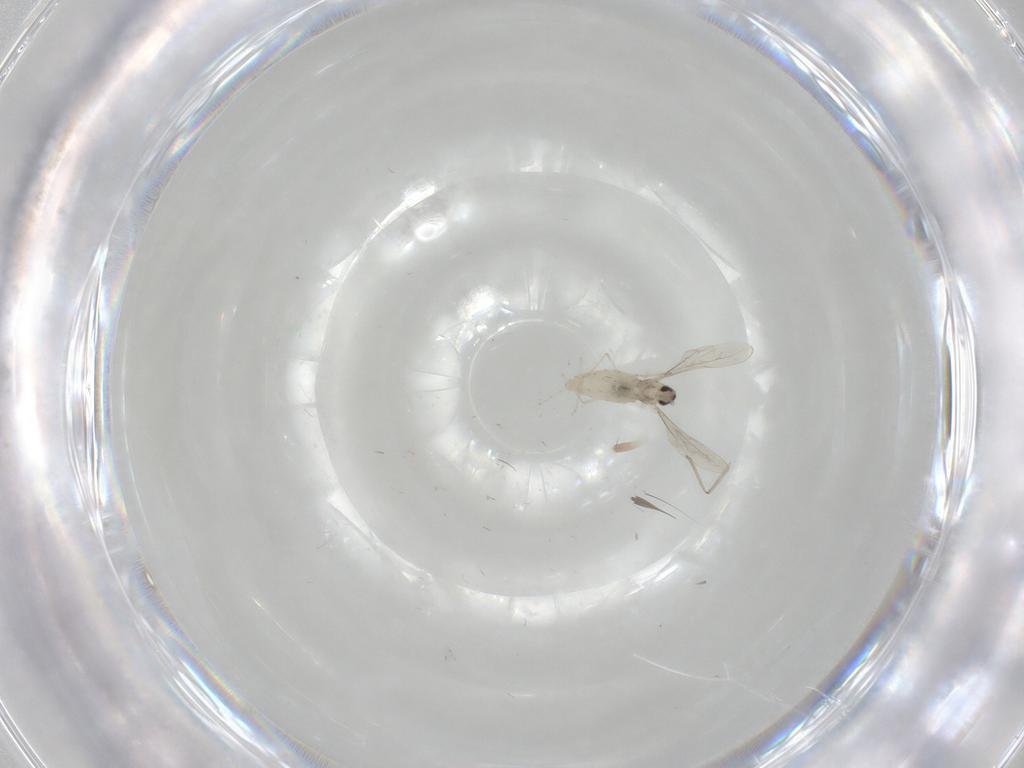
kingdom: Animalia
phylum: Arthropoda
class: Insecta
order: Diptera
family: Cecidomyiidae
